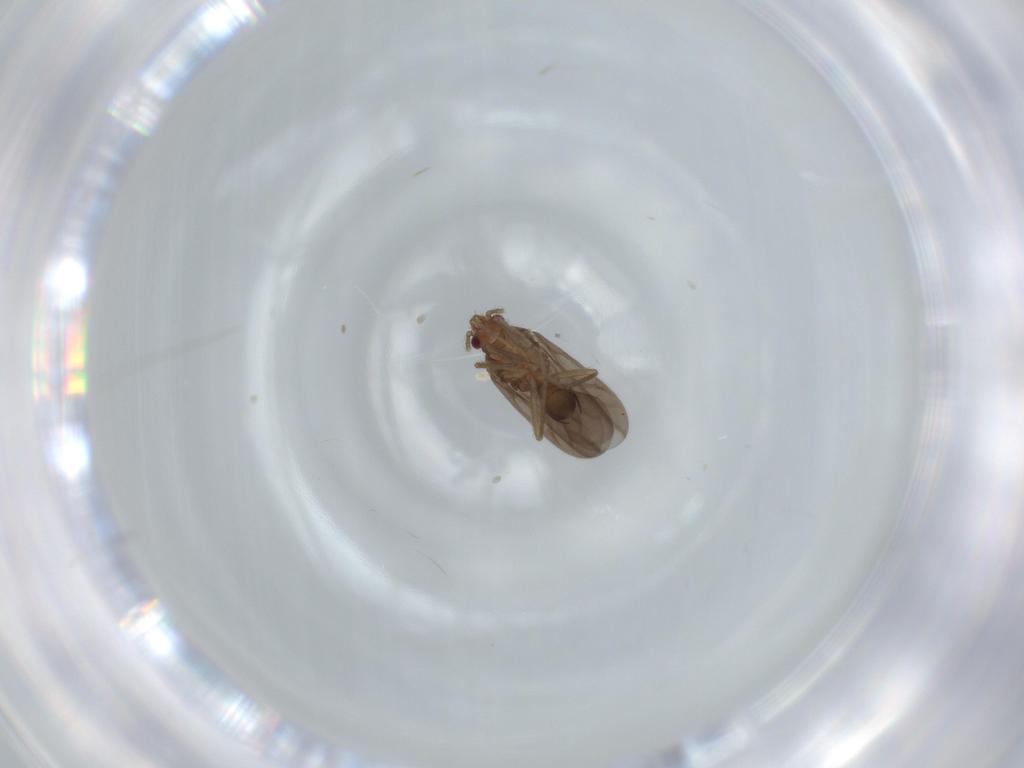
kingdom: Animalia
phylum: Arthropoda
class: Insecta
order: Hemiptera
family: Ceratocombidae
